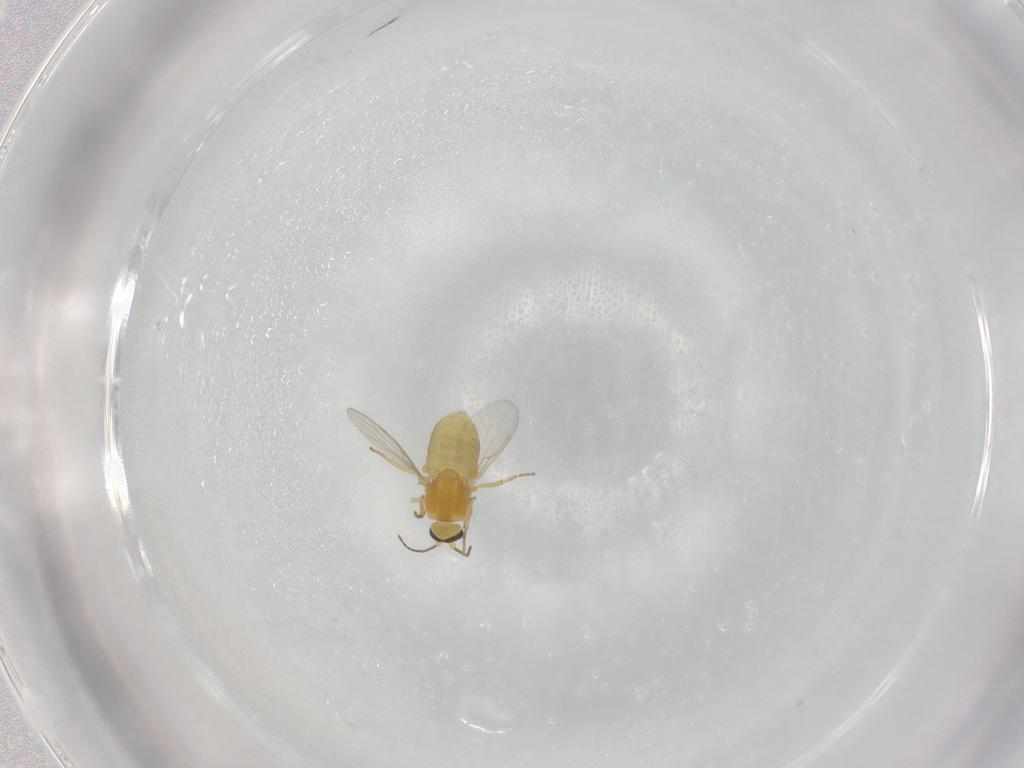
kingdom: Animalia
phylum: Arthropoda
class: Insecta
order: Diptera
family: Ceratopogonidae
